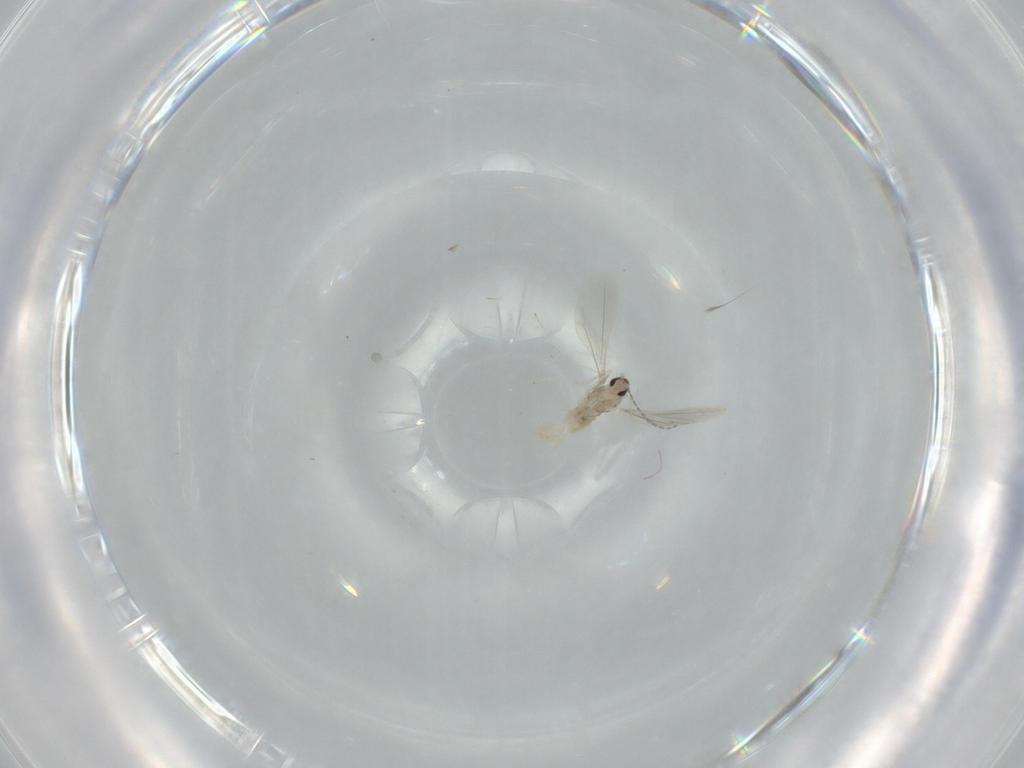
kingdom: Animalia
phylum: Arthropoda
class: Insecta
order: Diptera
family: Cecidomyiidae
